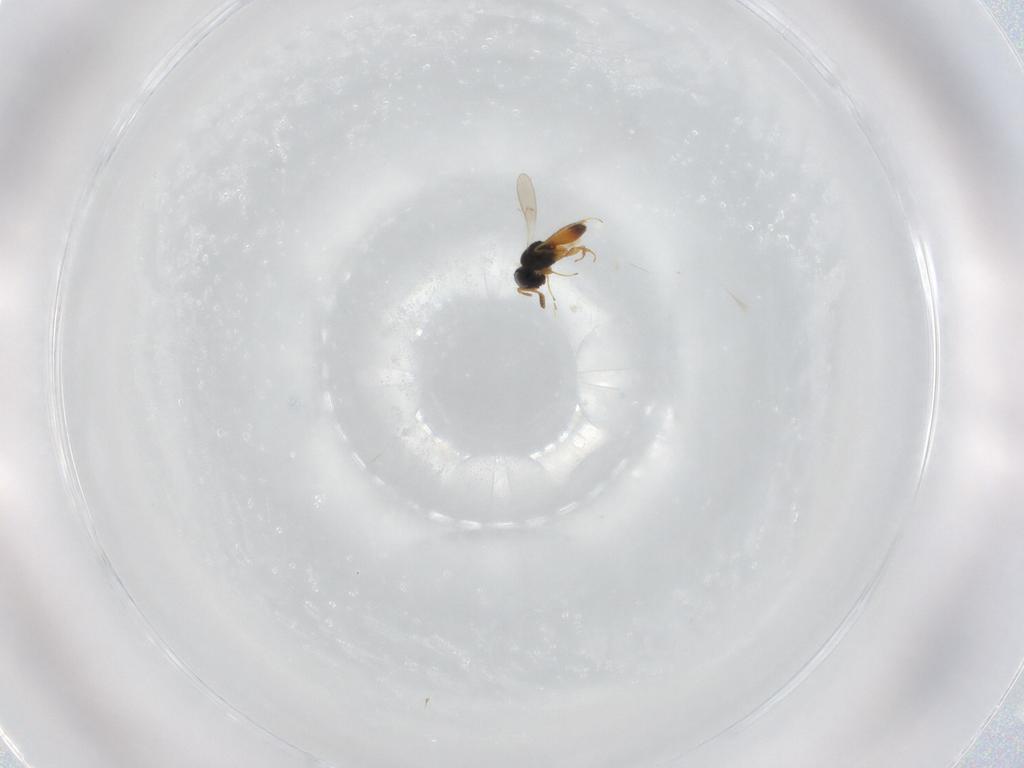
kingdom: Animalia
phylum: Arthropoda
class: Insecta
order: Hymenoptera
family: Scelionidae
